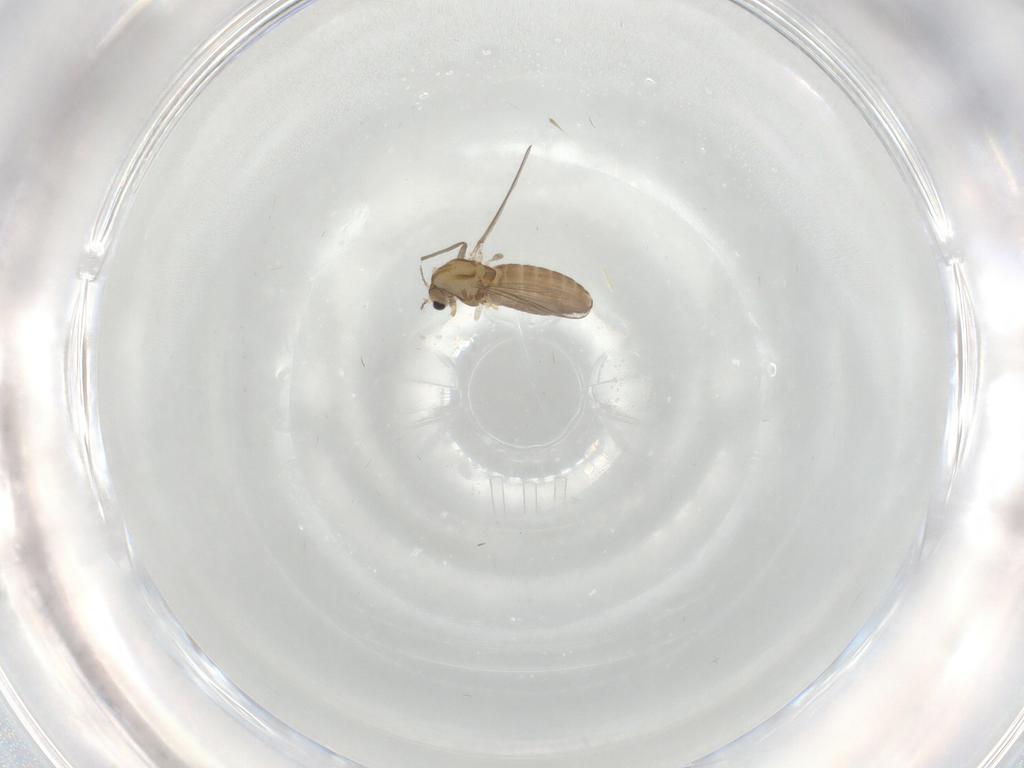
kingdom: Animalia
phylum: Arthropoda
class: Insecta
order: Diptera
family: Chironomidae
